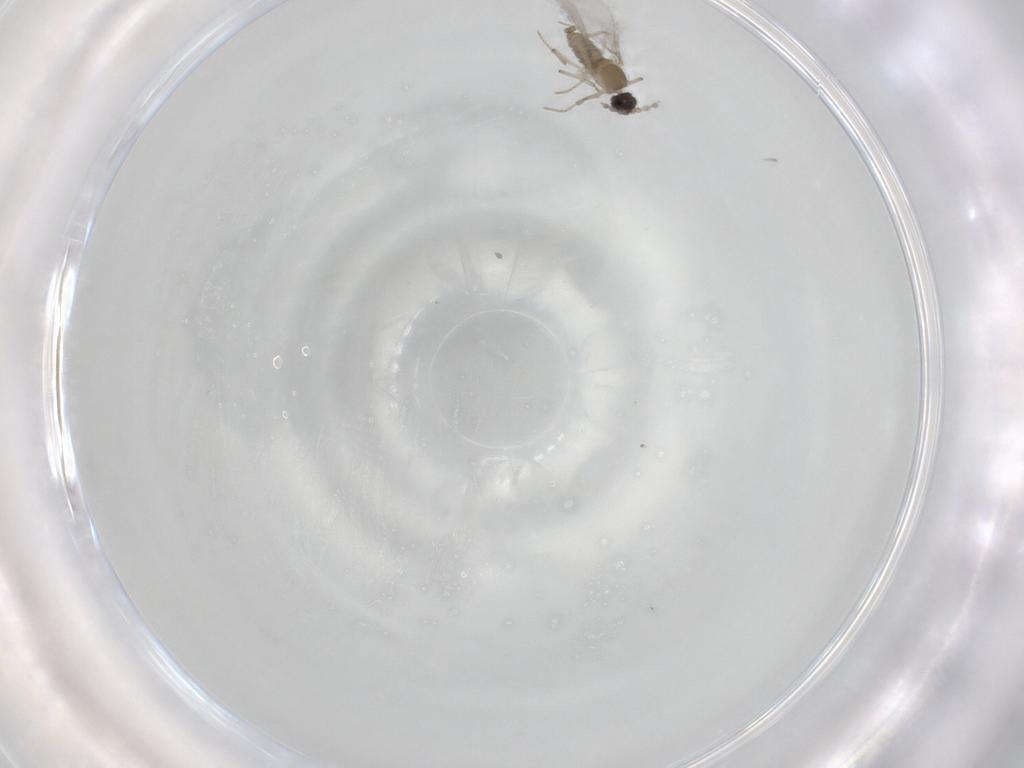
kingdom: Animalia
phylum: Arthropoda
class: Insecta
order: Diptera
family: Cecidomyiidae
